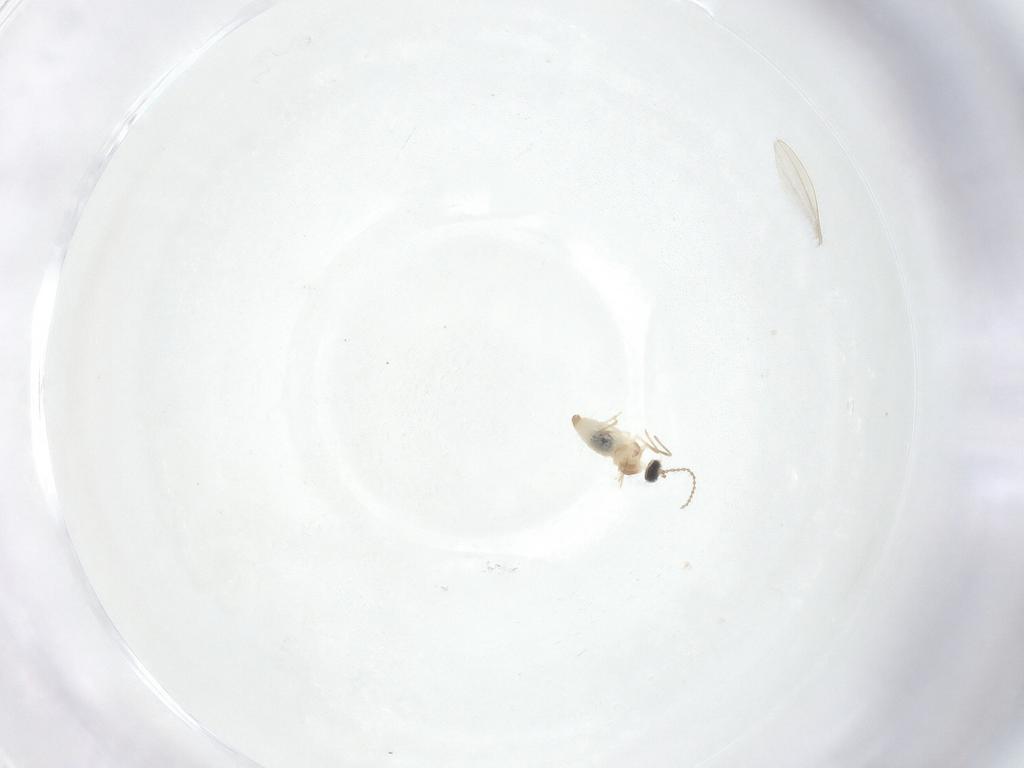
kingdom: Animalia
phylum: Arthropoda
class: Insecta
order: Diptera
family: Cecidomyiidae
